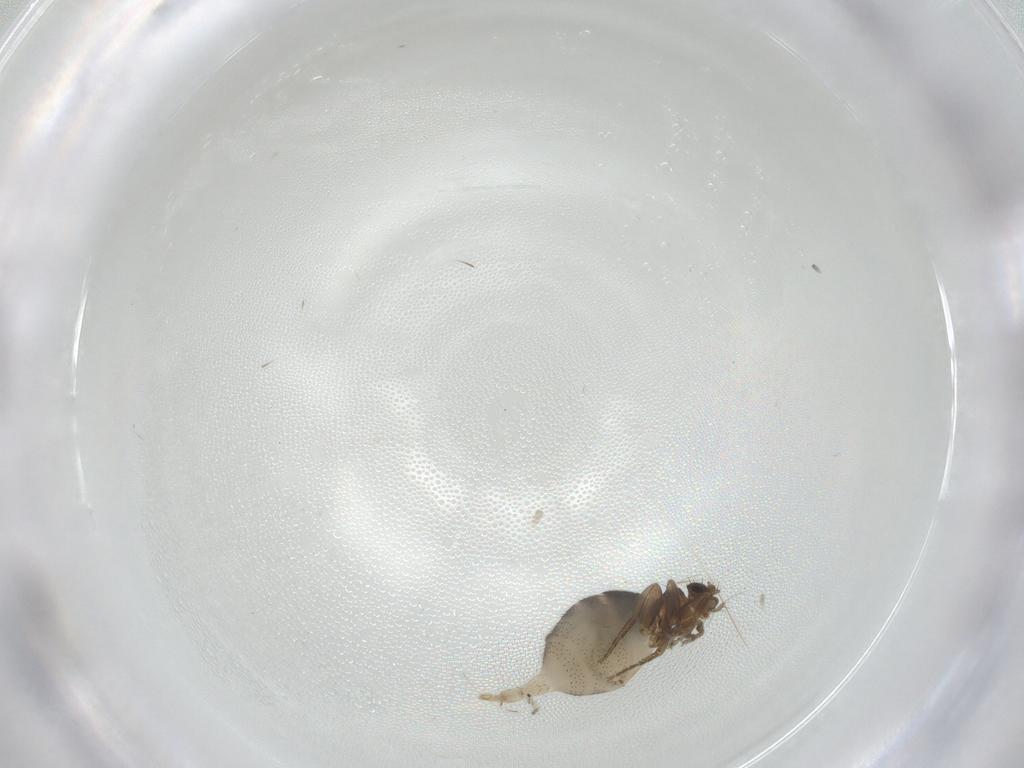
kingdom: Animalia
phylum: Arthropoda
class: Insecta
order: Diptera
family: Phoridae
